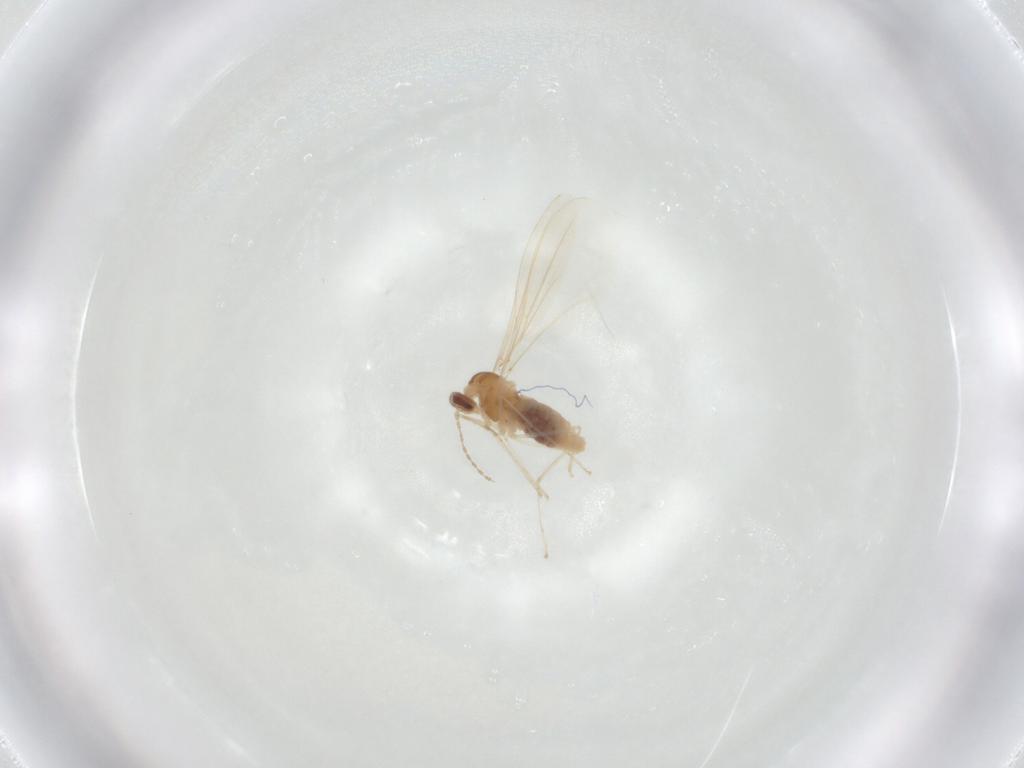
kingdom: Animalia
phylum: Arthropoda
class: Insecta
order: Diptera
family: Cecidomyiidae
